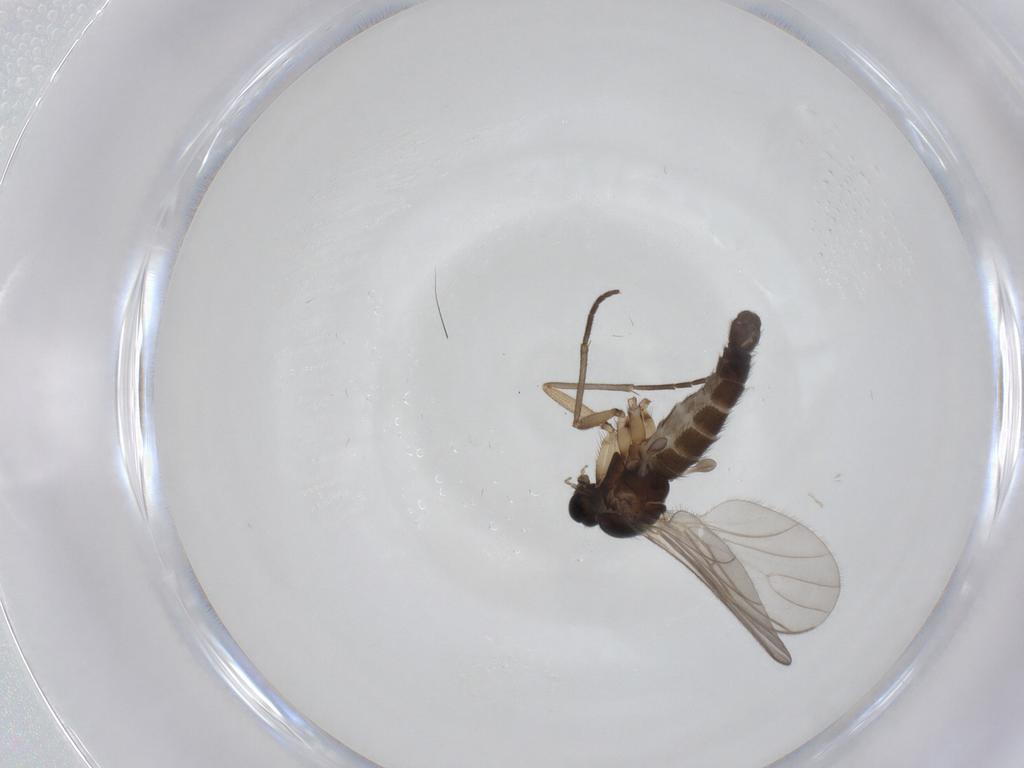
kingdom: Animalia
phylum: Arthropoda
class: Insecta
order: Diptera
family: Sciaridae
